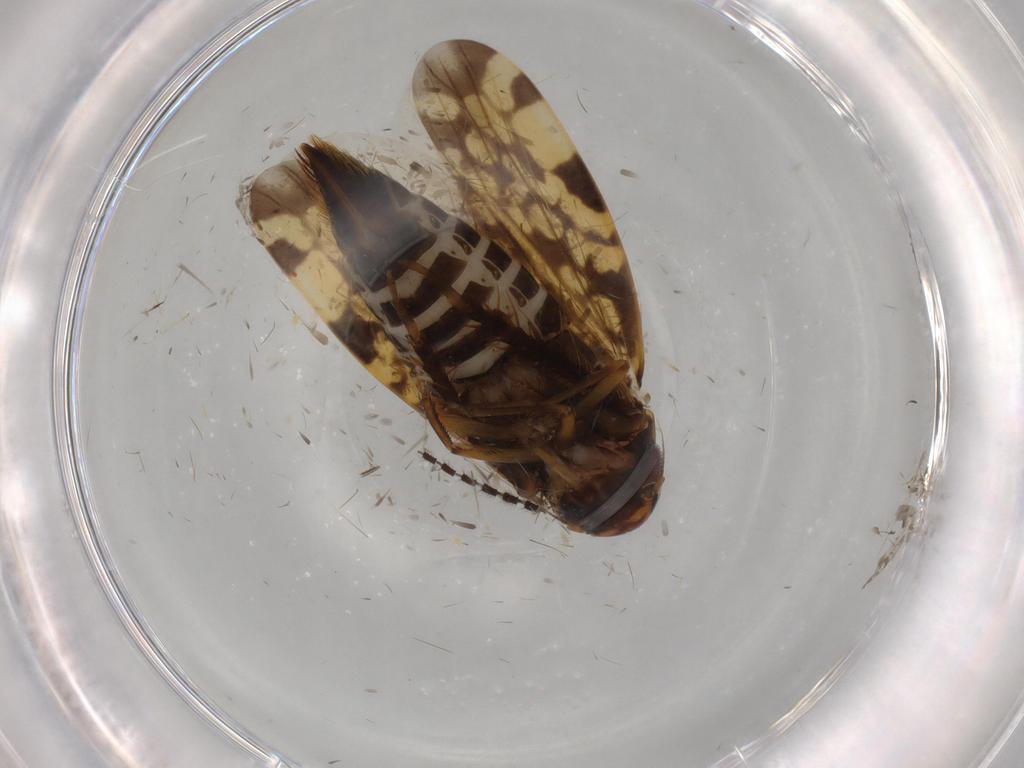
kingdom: Animalia
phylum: Arthropoda
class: Insecta
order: Hemiptera
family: Cicadellidae
